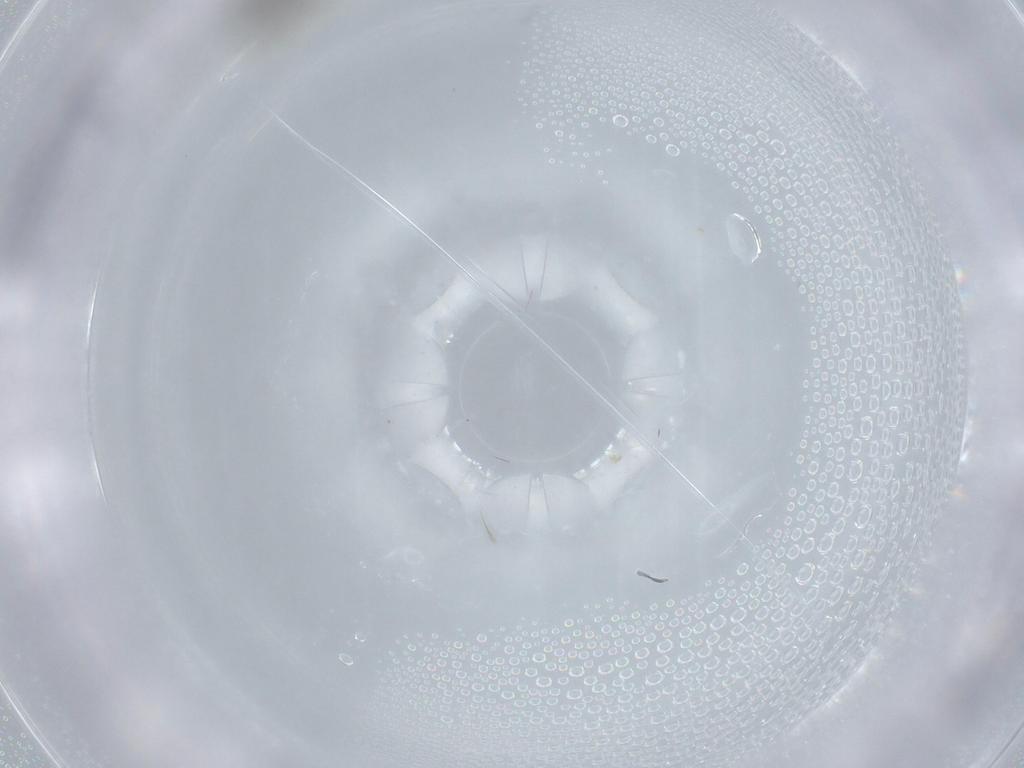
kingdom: Animalia
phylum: Arthropoda
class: Insecta
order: Diptera
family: Cecidomyiidae
